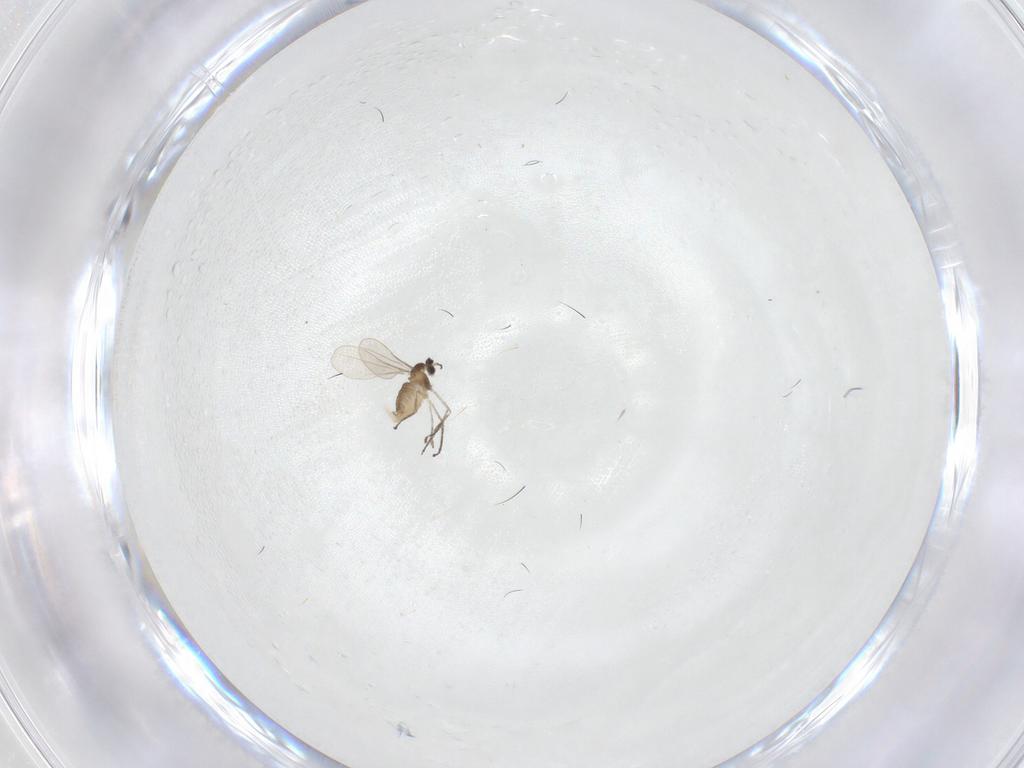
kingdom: Animalia
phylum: Arthropoda
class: Insecta
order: Diptera
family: Cecidomyiidae
